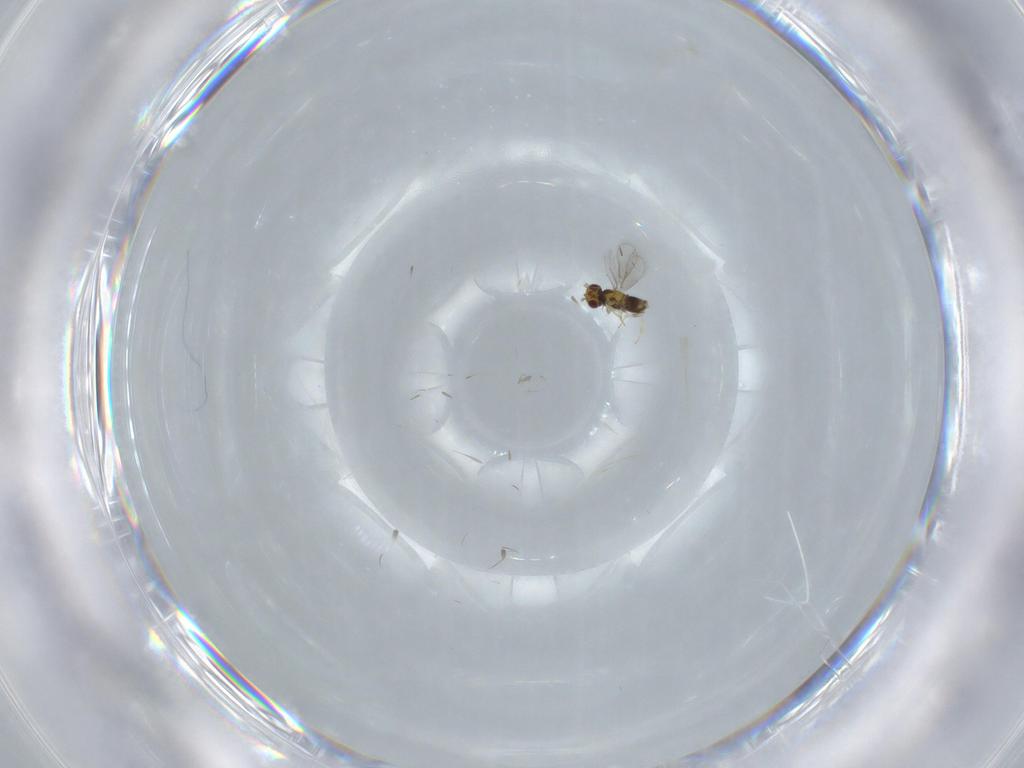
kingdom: Animalia
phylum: Arthropoda
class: Insecta
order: Hymenoptera
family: Aphelinidae
